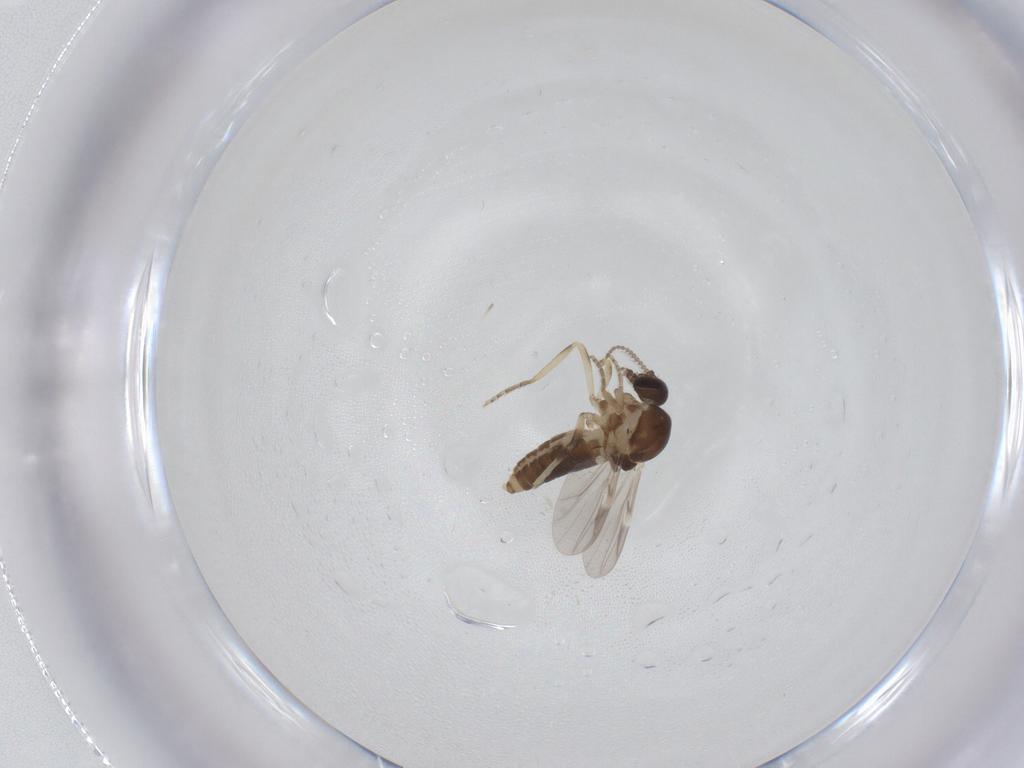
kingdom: Animalia
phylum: Arthropoda
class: Insecta
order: Diptera
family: Ceratopogonidae
